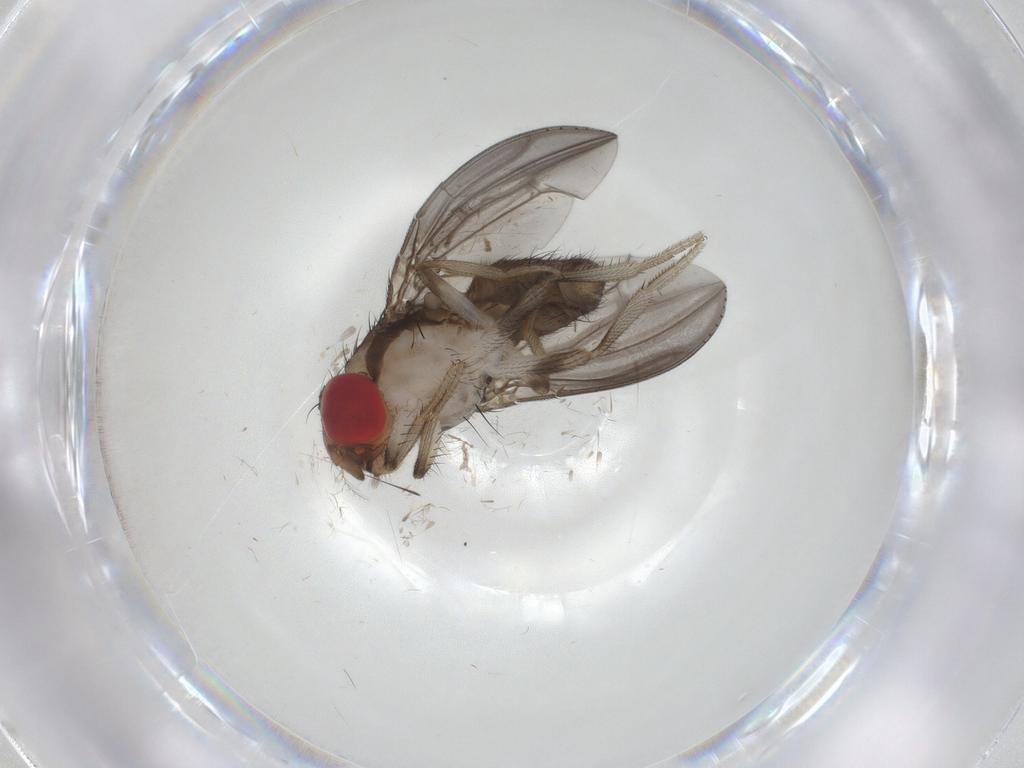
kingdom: Animalia
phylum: Arthropoda
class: Insecta
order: Diptera
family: Drosophilidae
